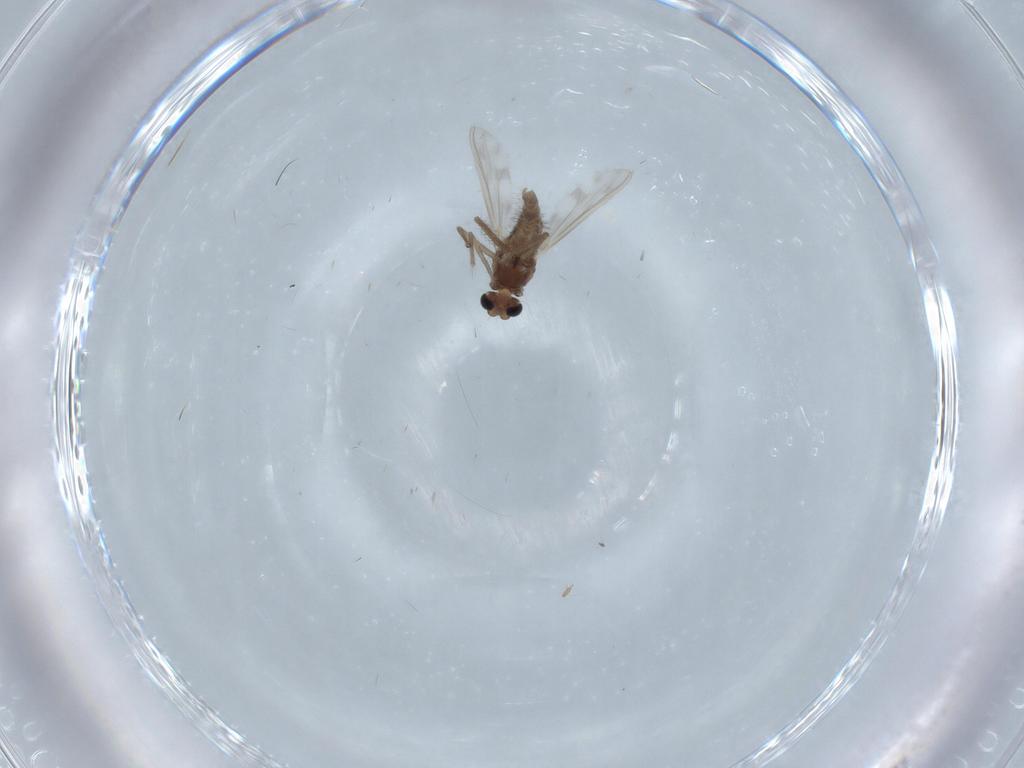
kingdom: Animalia
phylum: Arthropoda
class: Insecta
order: Diptera
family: Chironomidae
